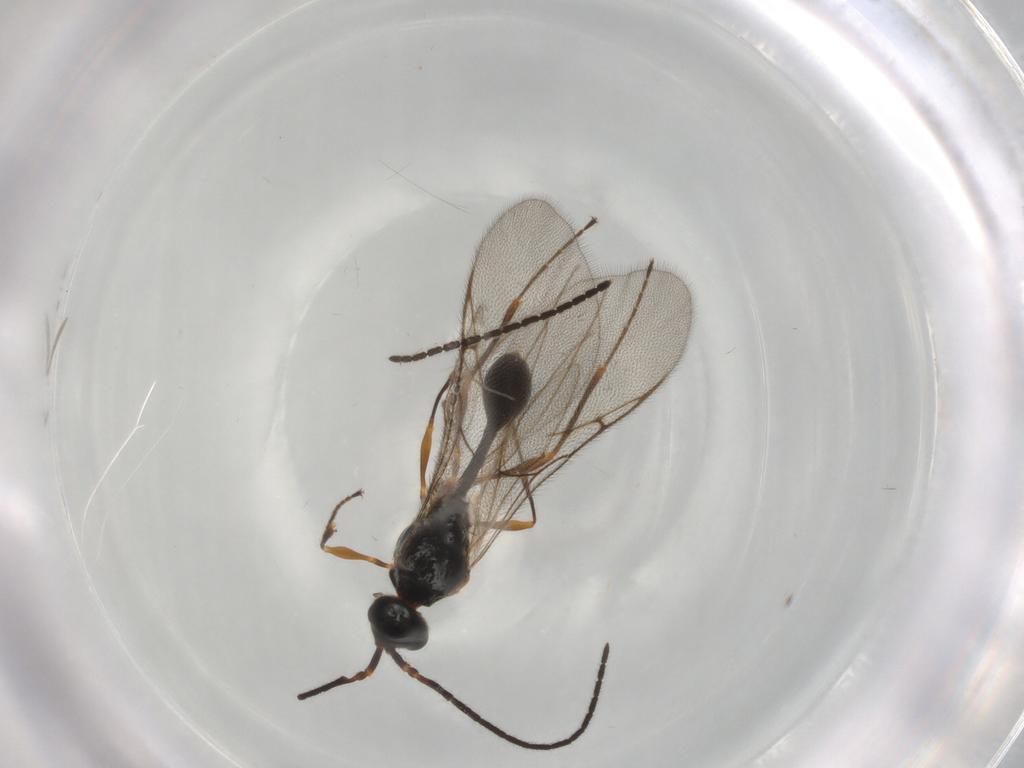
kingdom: Animalia
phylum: Arthropoda
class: Insecta
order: Hymenoptera
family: Diapriidae
